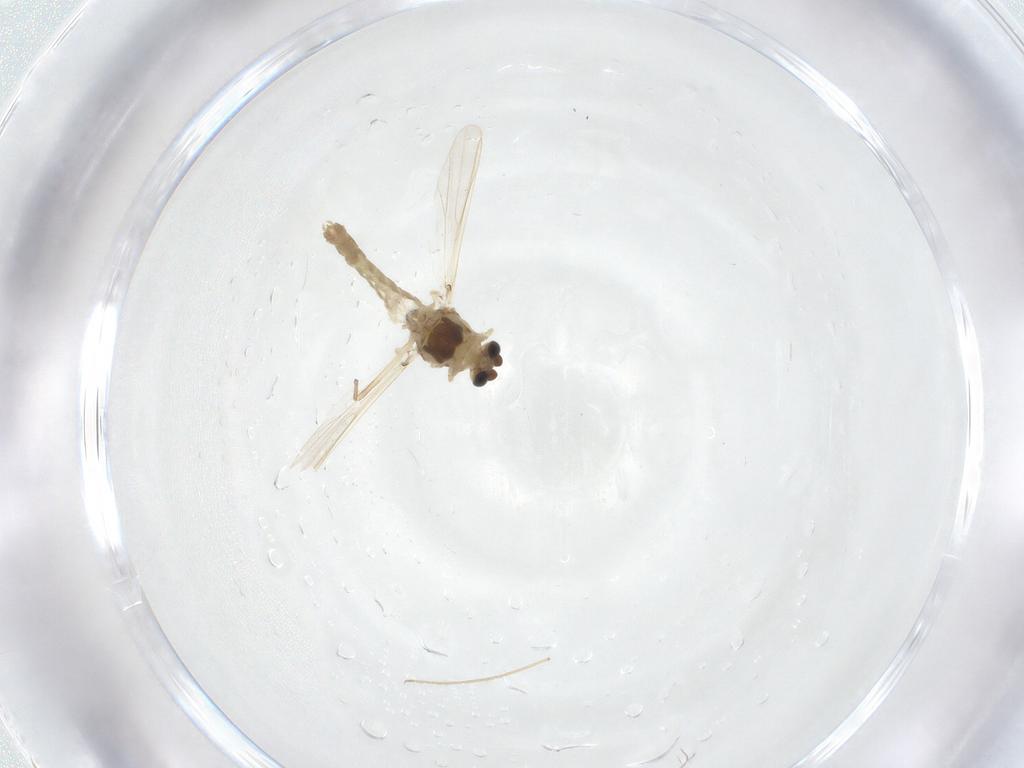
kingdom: Animalia
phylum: Arthropoda
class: Insecta
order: Diptera
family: Chironomidae
